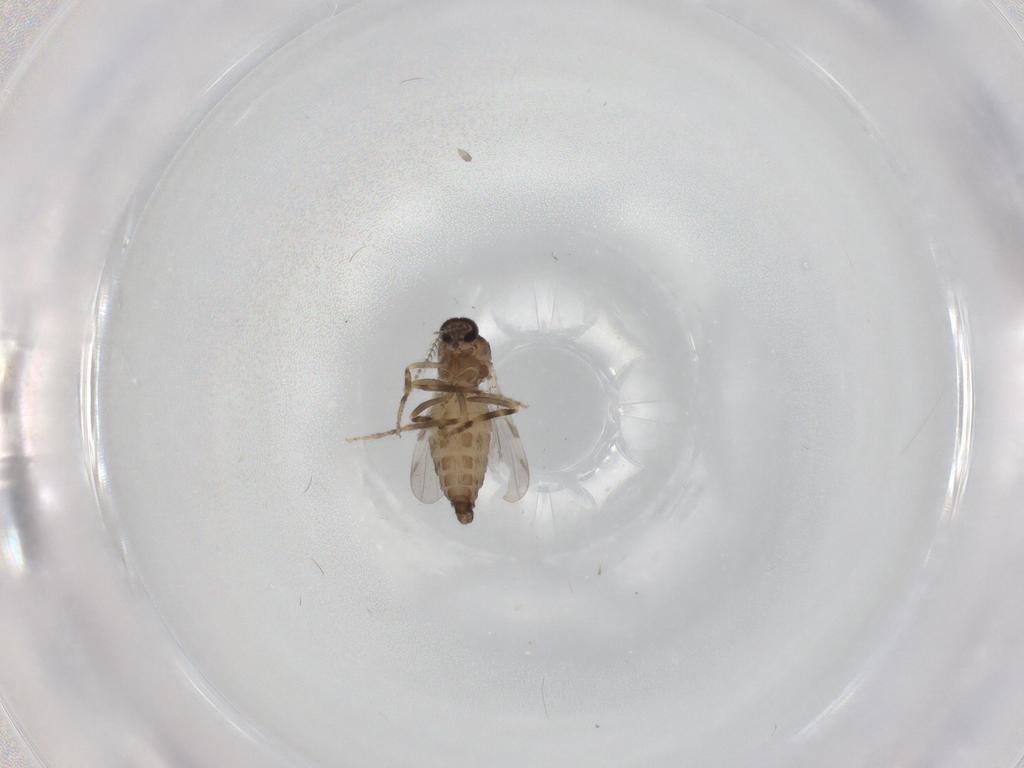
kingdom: Animalia
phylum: Arthropoda
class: Insecta
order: Diptera
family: Ceratopogonidae
